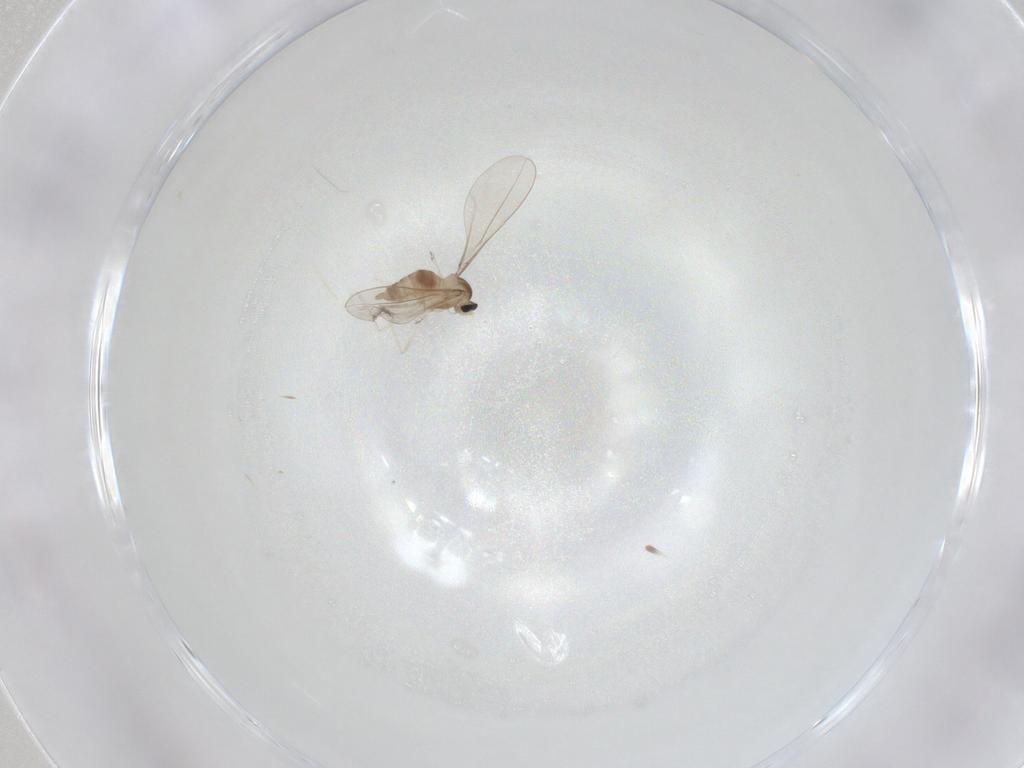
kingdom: Animalia
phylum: Arthropoda
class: Insecta
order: Diptera
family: Cecidomyiidae
